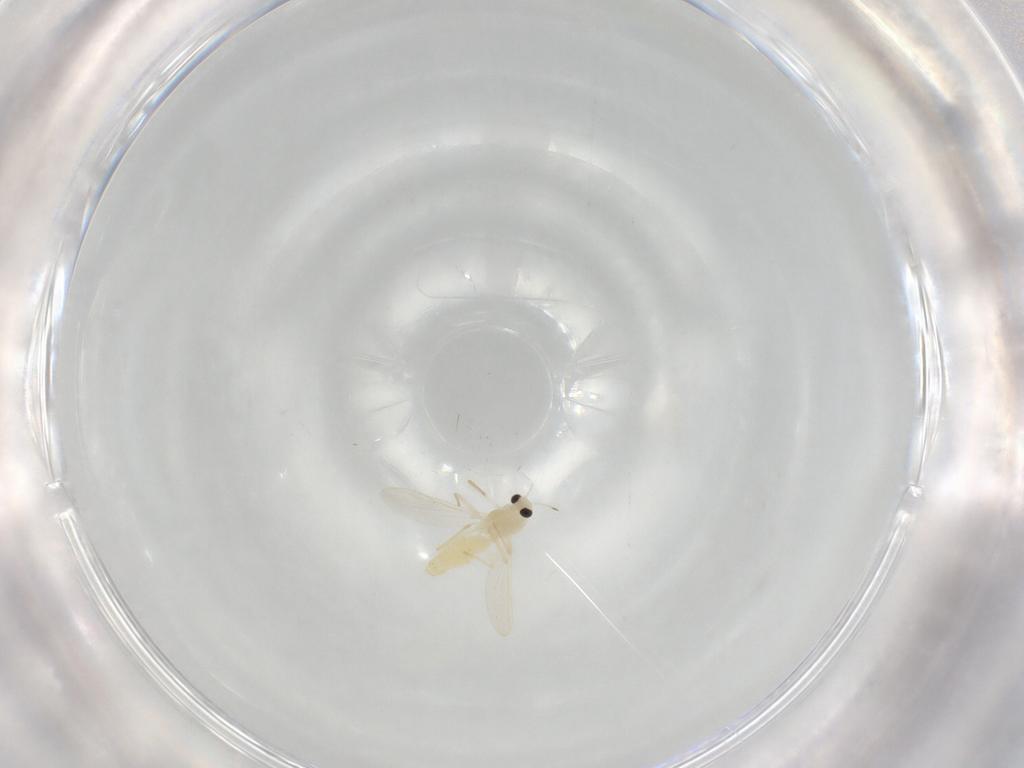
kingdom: Animalia
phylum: Arthropoda
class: Insecta
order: Diptera
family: Chironomidae
